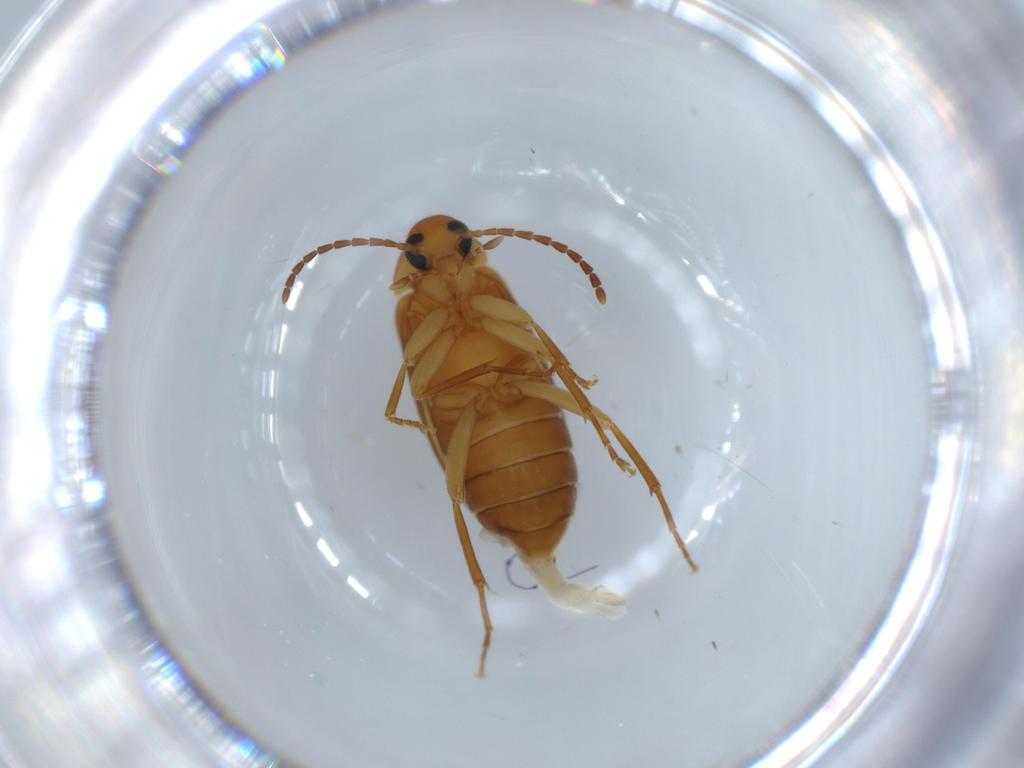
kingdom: Animalia
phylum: Arthropoda
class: Insecta
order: Coleoptera
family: Scraptiidae
